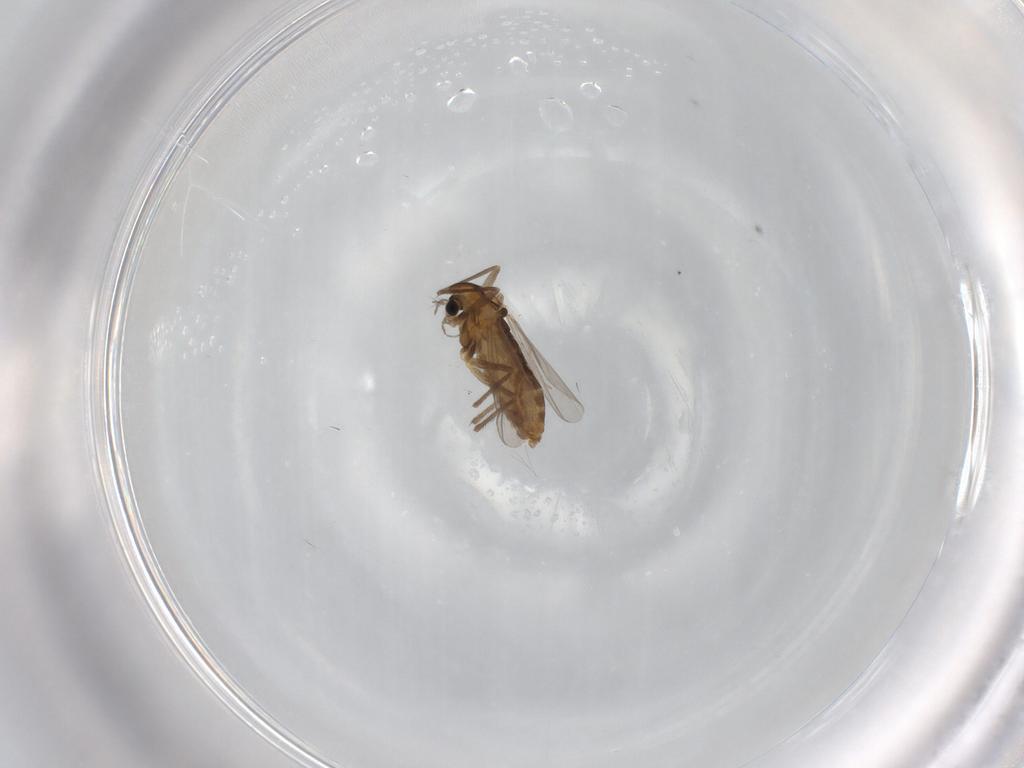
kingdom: Animalia
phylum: Arthropoda
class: Insecta
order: Diptera
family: Chironomidae
